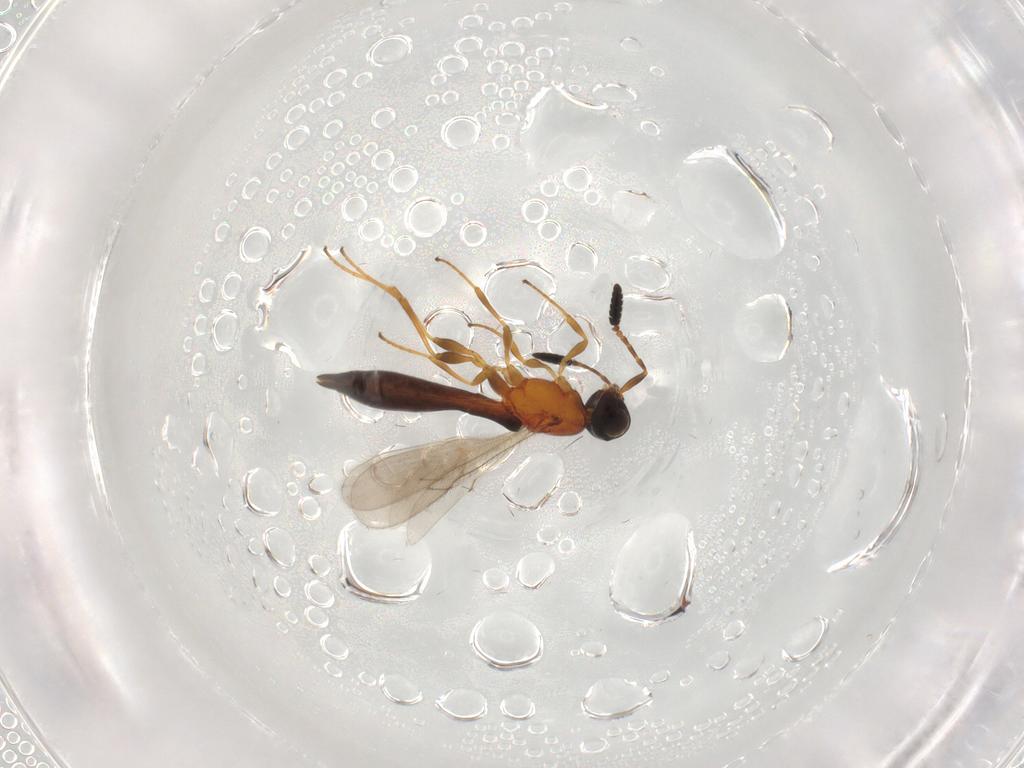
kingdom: Animalia
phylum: Arthropoda
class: Insecta
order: Hymenoptera
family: Scelionidae
